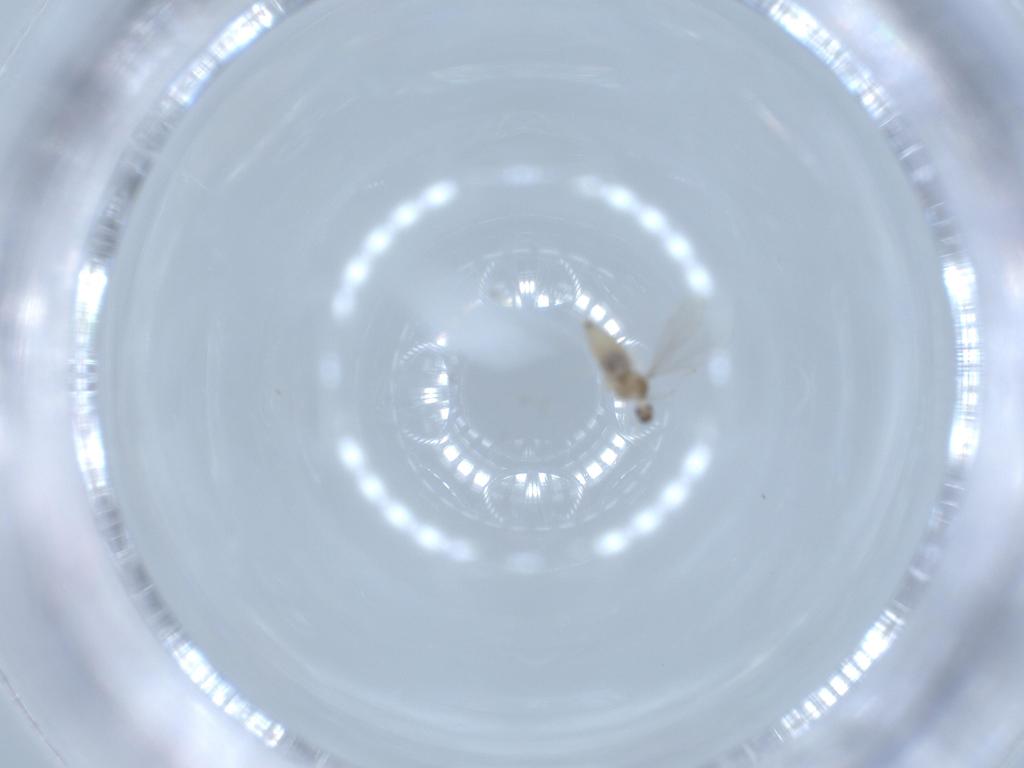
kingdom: Animalia
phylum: Arthropoda
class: Insecta
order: Diptera
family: Cecidomyiidae
